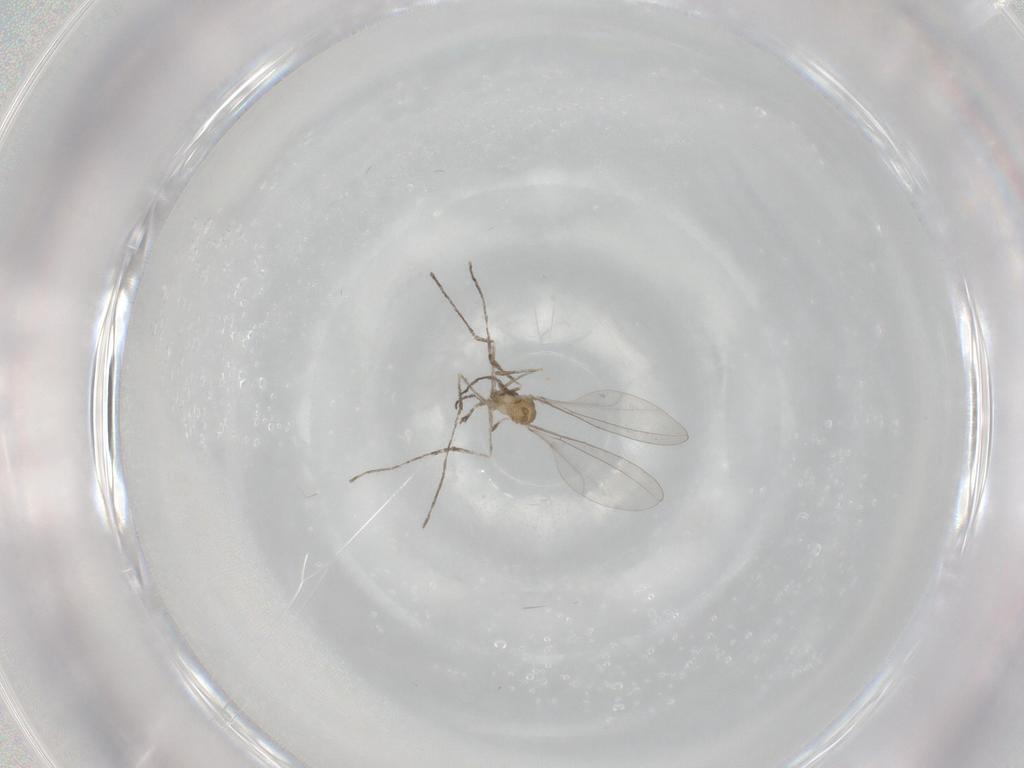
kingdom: Animalia
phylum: Arthropoda
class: Insecta
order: Diptera
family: Cecidomyiidae
